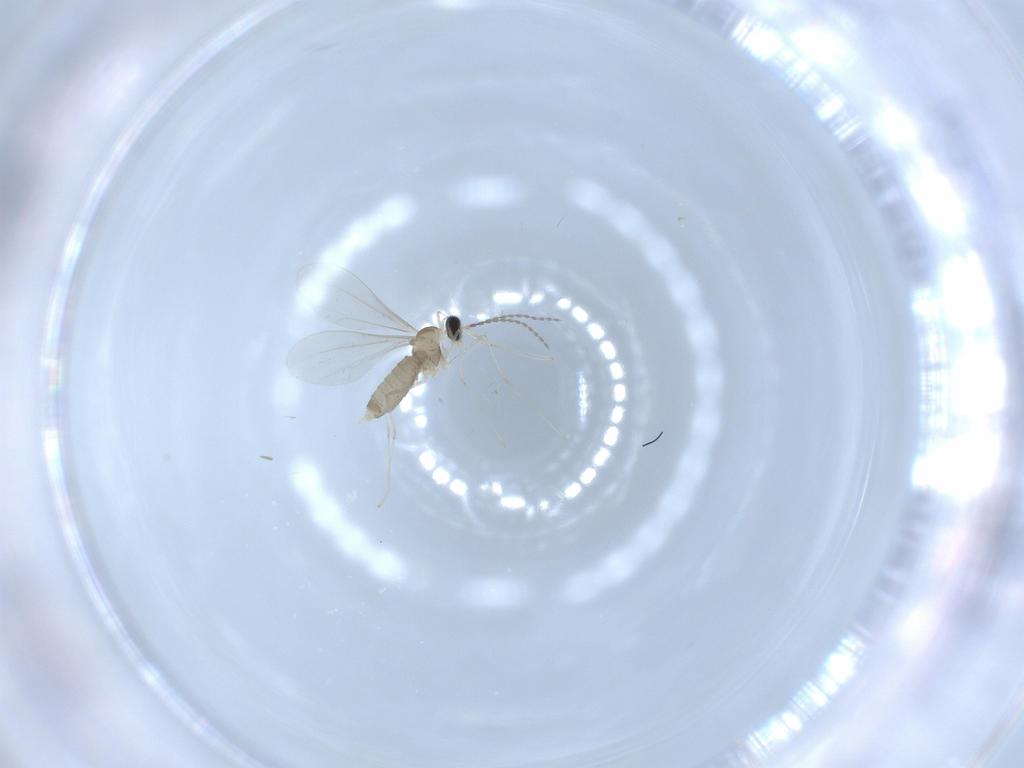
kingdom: Animalia
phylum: Arthropoda
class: Insecta
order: Diptera
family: Cecidomyiidae
